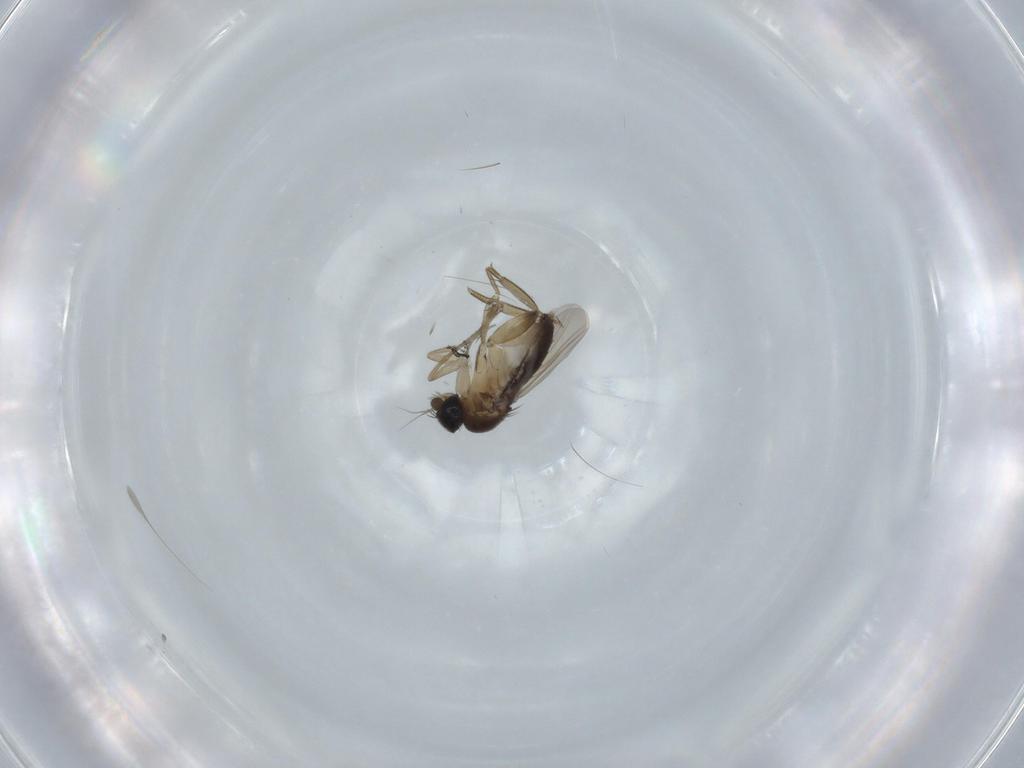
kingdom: Animalia
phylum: Arthropoda
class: Insecta
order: Diptera
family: Phoridae
